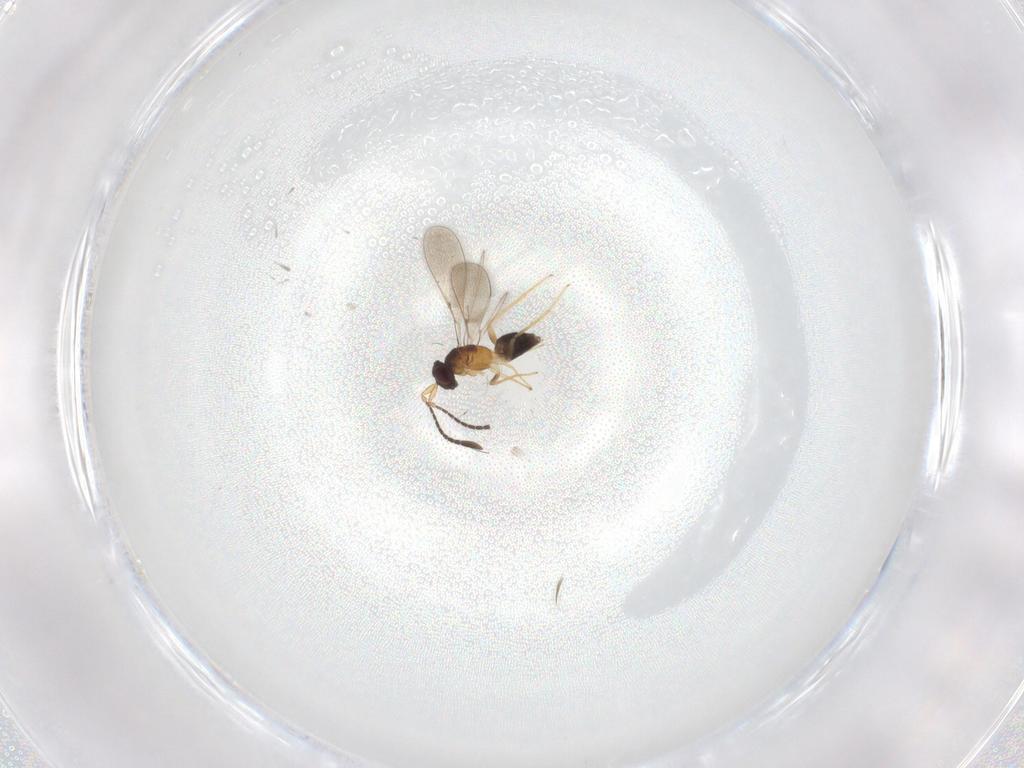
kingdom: Animalia
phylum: Arthropoda
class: Insecta
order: Hymenoptera
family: Mymaridae
